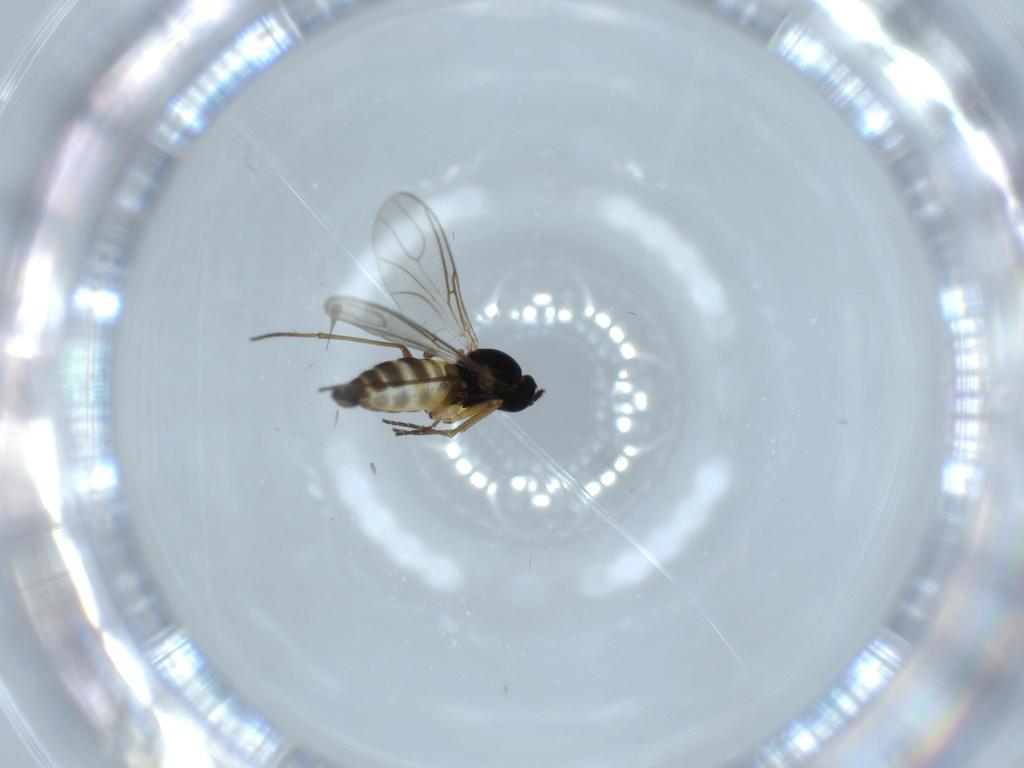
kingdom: Animalia
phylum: Arthropoda
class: Insecta
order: Diptera
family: Sciaridae
